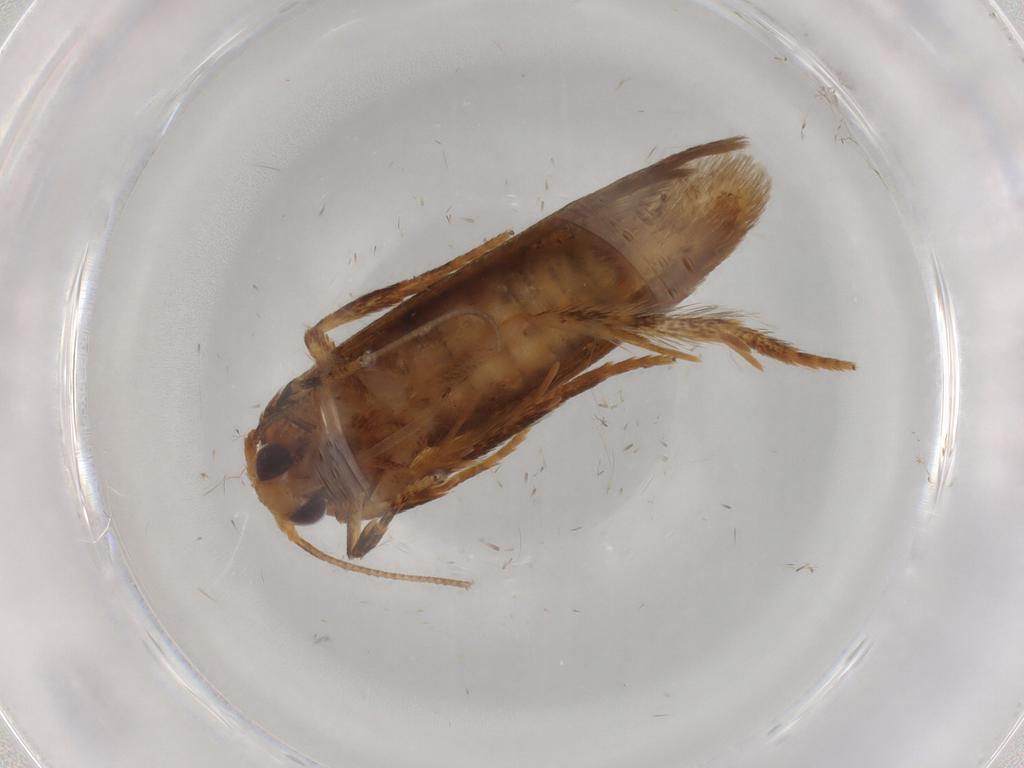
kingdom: Animalia
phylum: Arthropoda
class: Insecta
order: Lepidoptera
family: Blastobasidae
